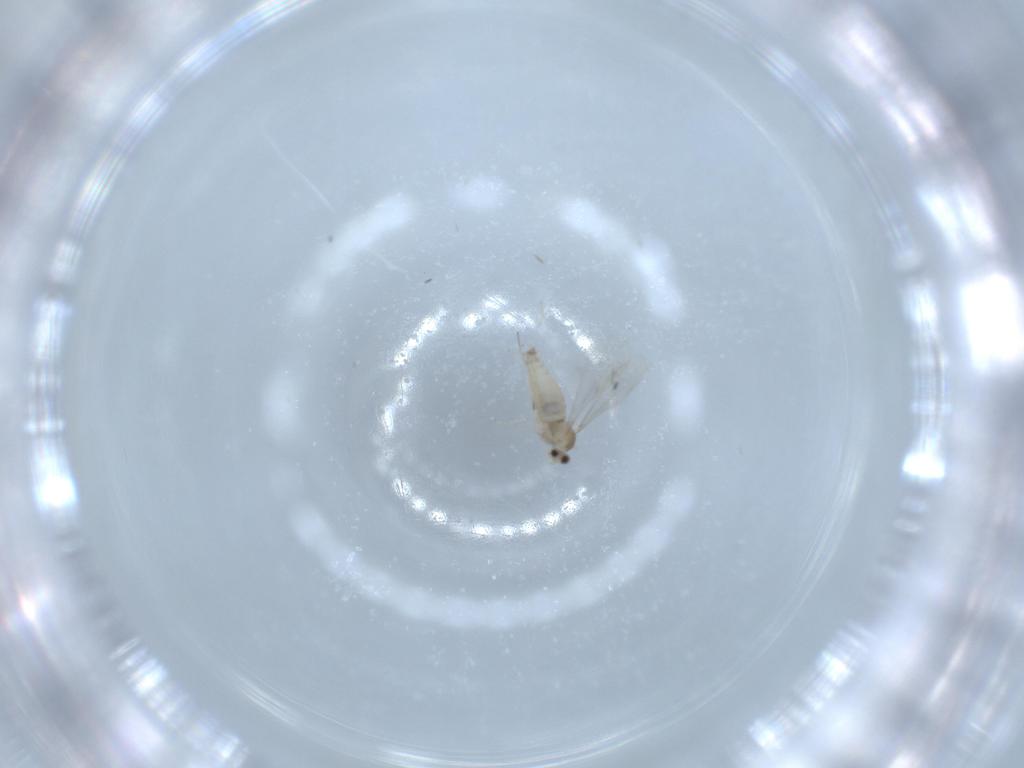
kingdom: Animalia
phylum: Arthropoda
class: Insecta
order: Diptera
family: Cecidomyiidae
